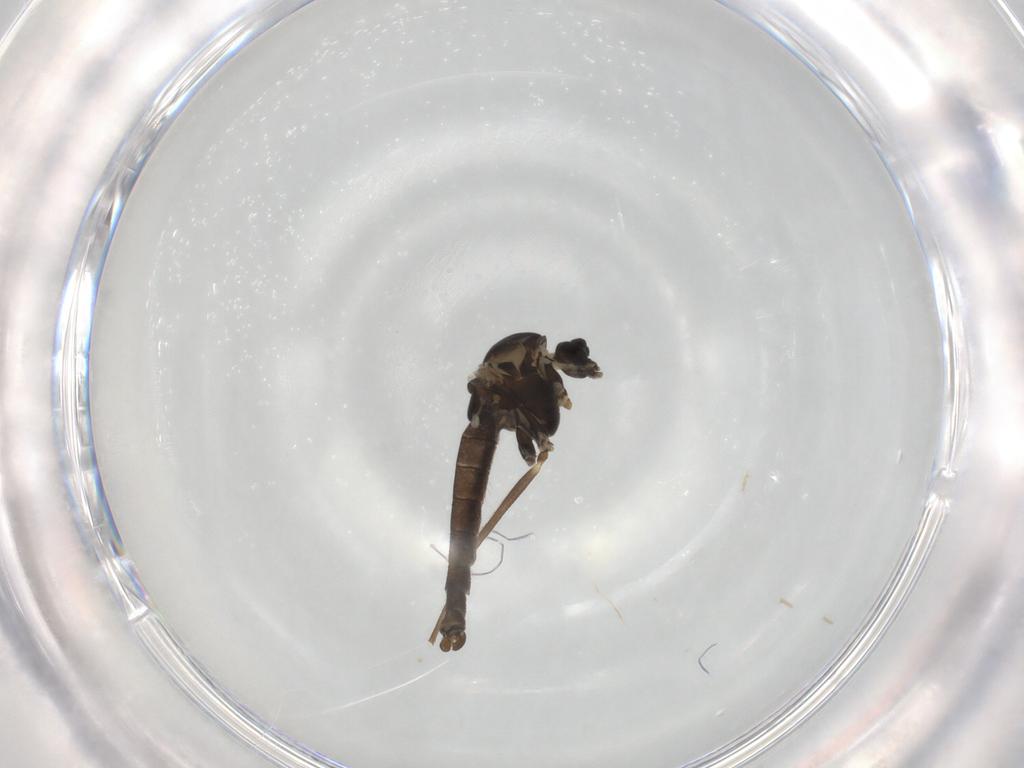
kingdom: Animalia
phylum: Arthropoda
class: Insecta
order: Diptera
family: Chironomidae
